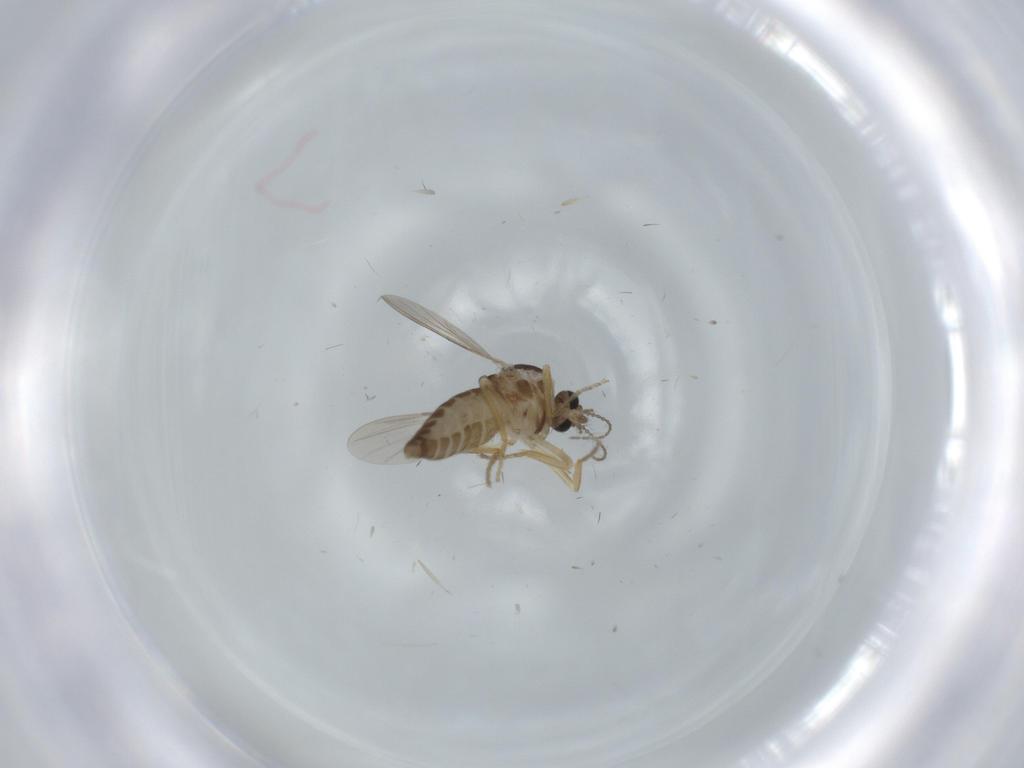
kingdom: Animalia
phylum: Arthropoda
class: Insecta
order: Diptera
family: Ceratopogonidae
